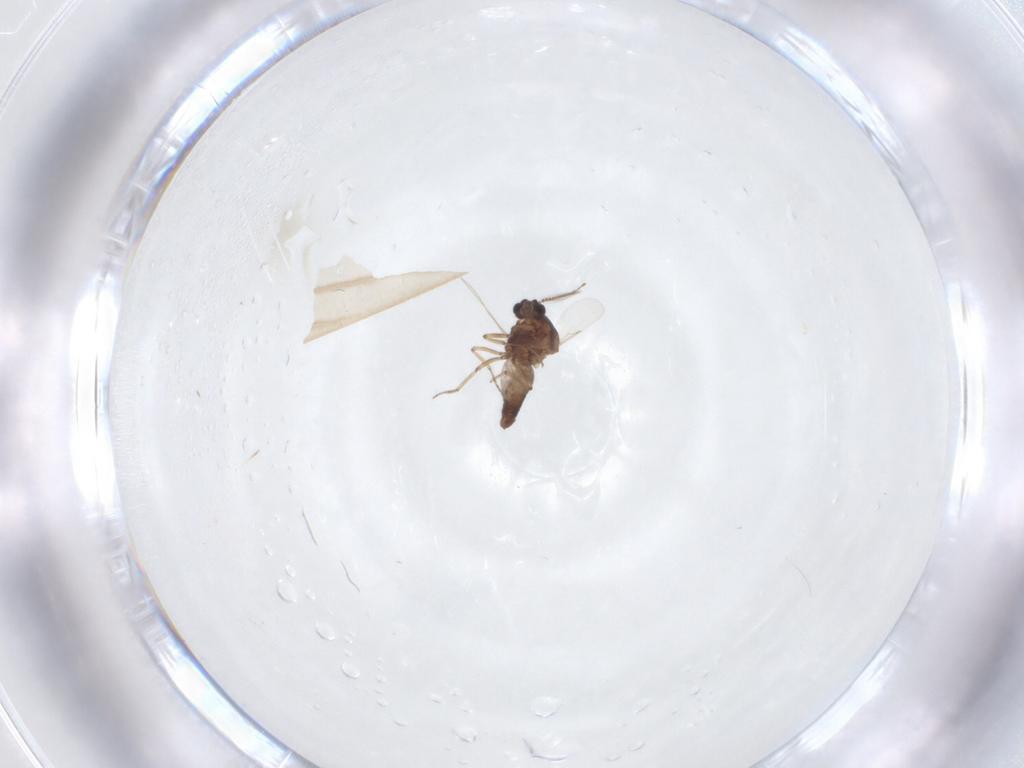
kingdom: Animalia
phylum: Arthropoda
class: Insecta
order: Diptera
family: Ceratopogonidae
